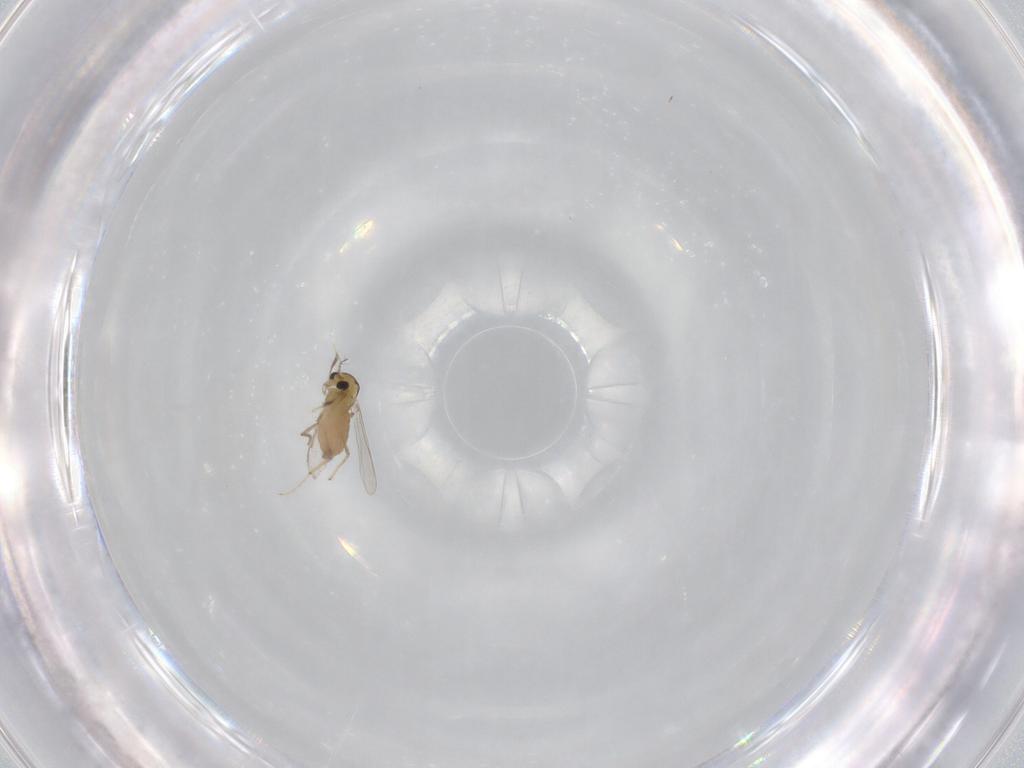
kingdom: Animalia
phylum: Arthropoda
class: Insecta
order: Diptera
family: Chironomidae
